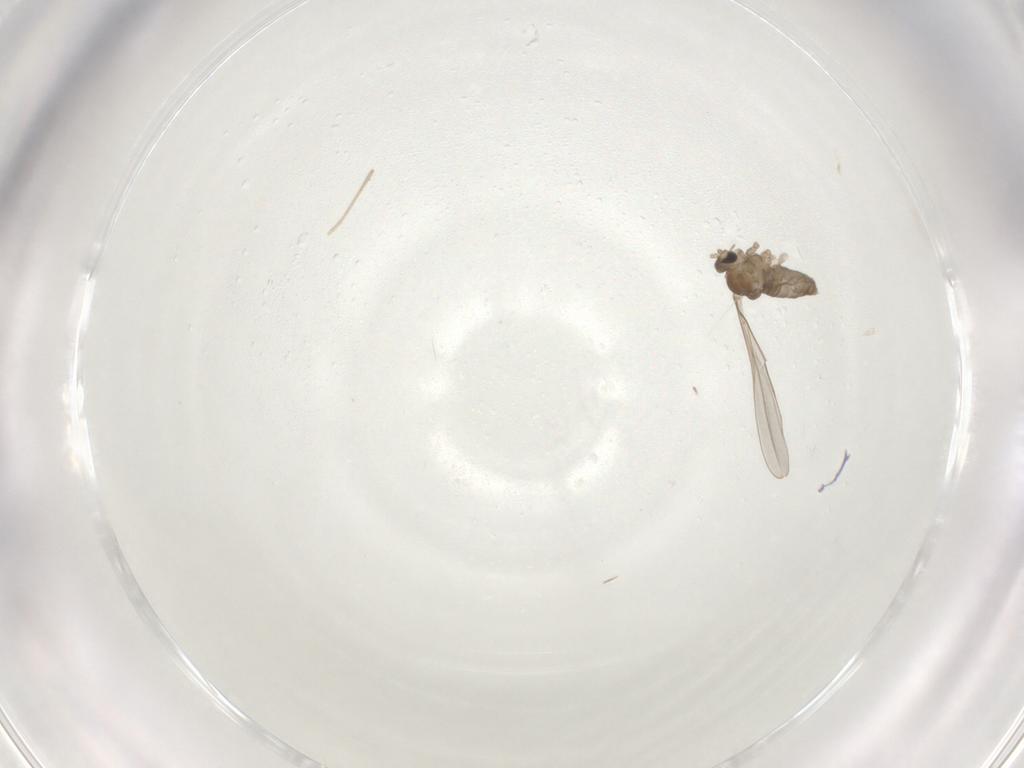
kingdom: Animalia
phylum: Arthropoda
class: Insecta
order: Diptera
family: Cecidomyiidae
